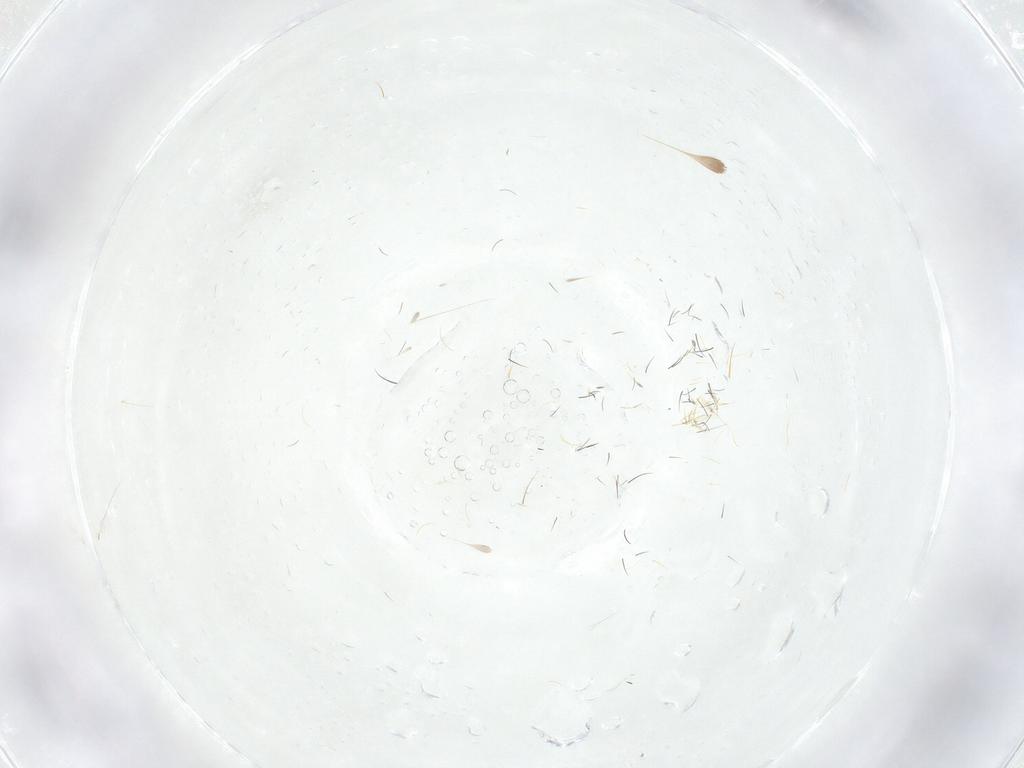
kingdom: Animalia
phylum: Arthropoda
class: Insecta
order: Diptera
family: Cecidomyiidae
